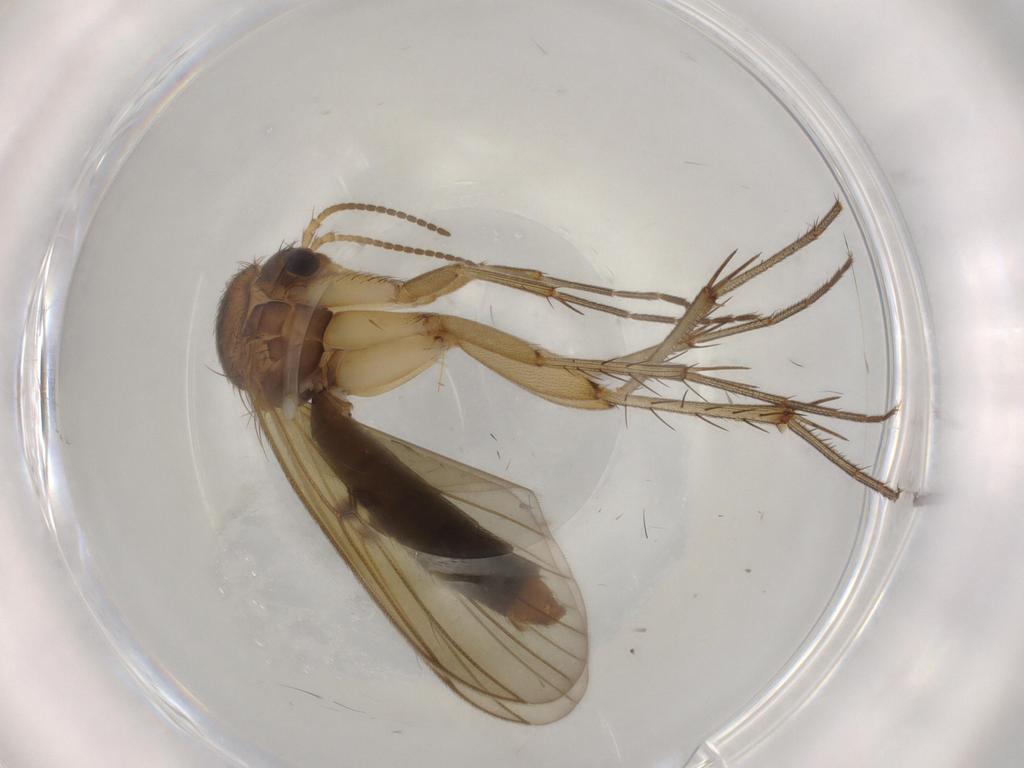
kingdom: Animalia
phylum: Arthropoda
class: Insecta
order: Diptera
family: Mycetophilidae
